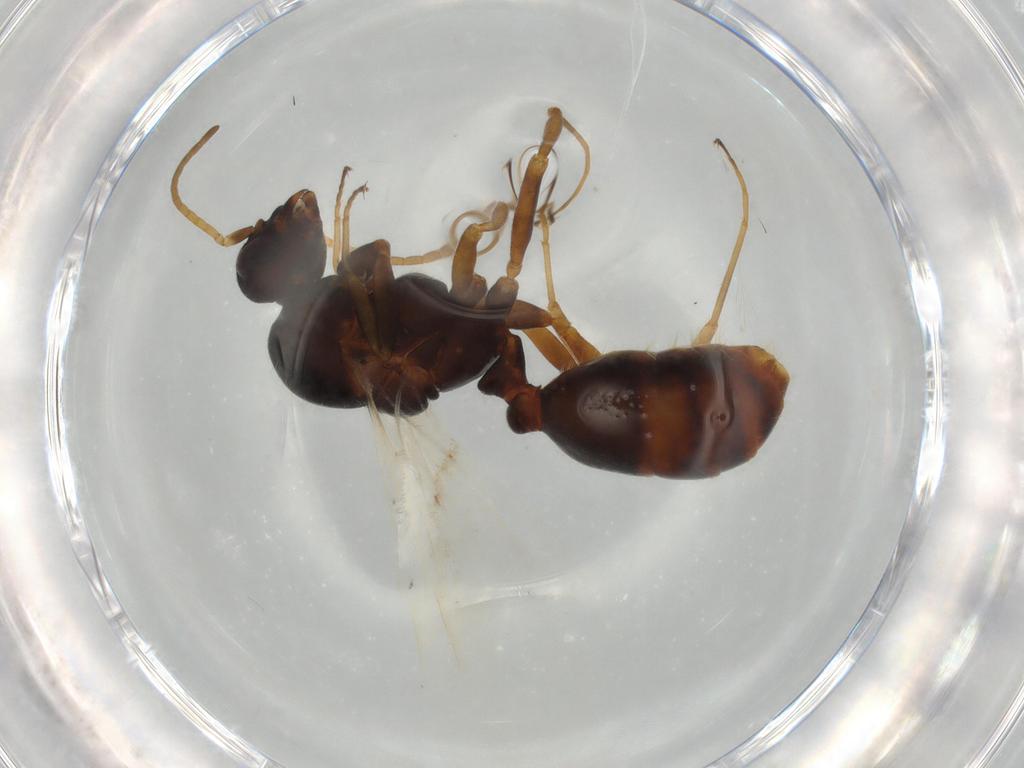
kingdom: Animalia
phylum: Arthropoda
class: Insecta
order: Hymenoptera
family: Formicidae
